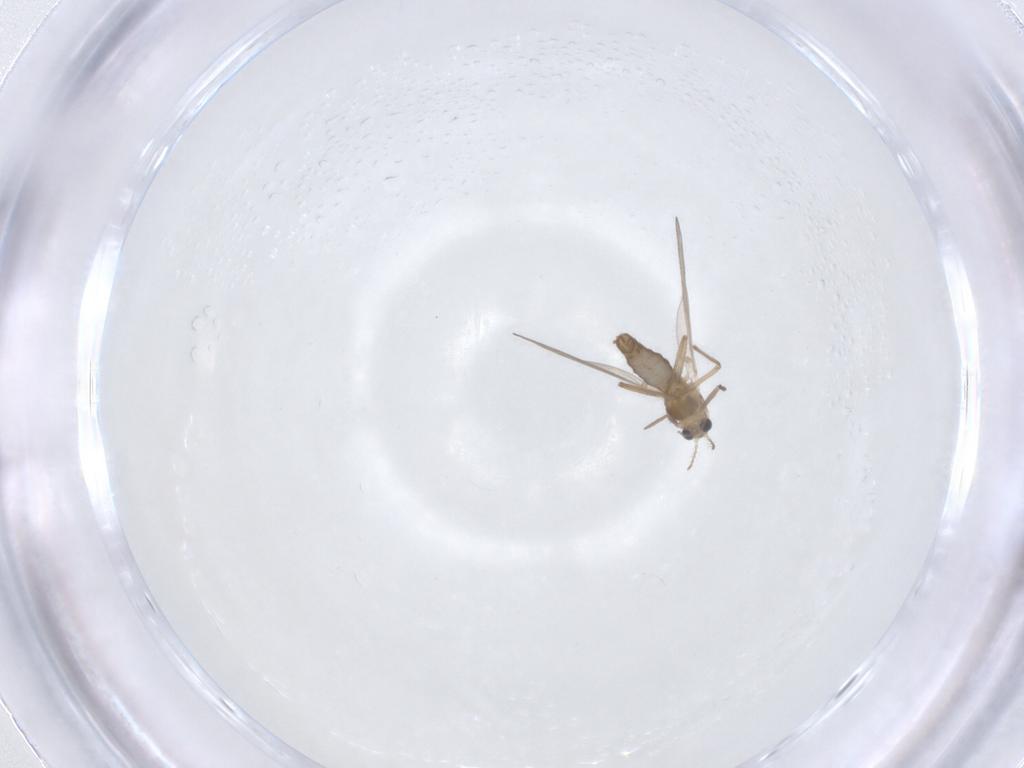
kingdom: Animalia
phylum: Arthropoda
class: Insecta
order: Diptera
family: Chironomidae
